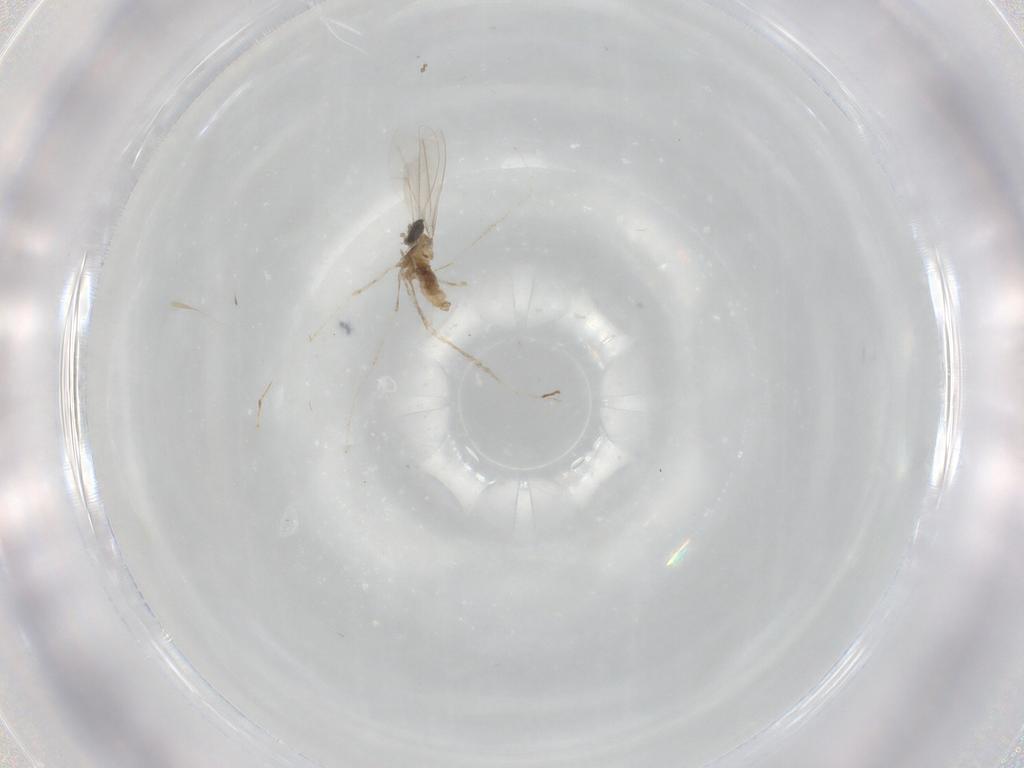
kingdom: Animalia
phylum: Arthropoda
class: Insecta
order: Diptera
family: Cecidomyiidae
